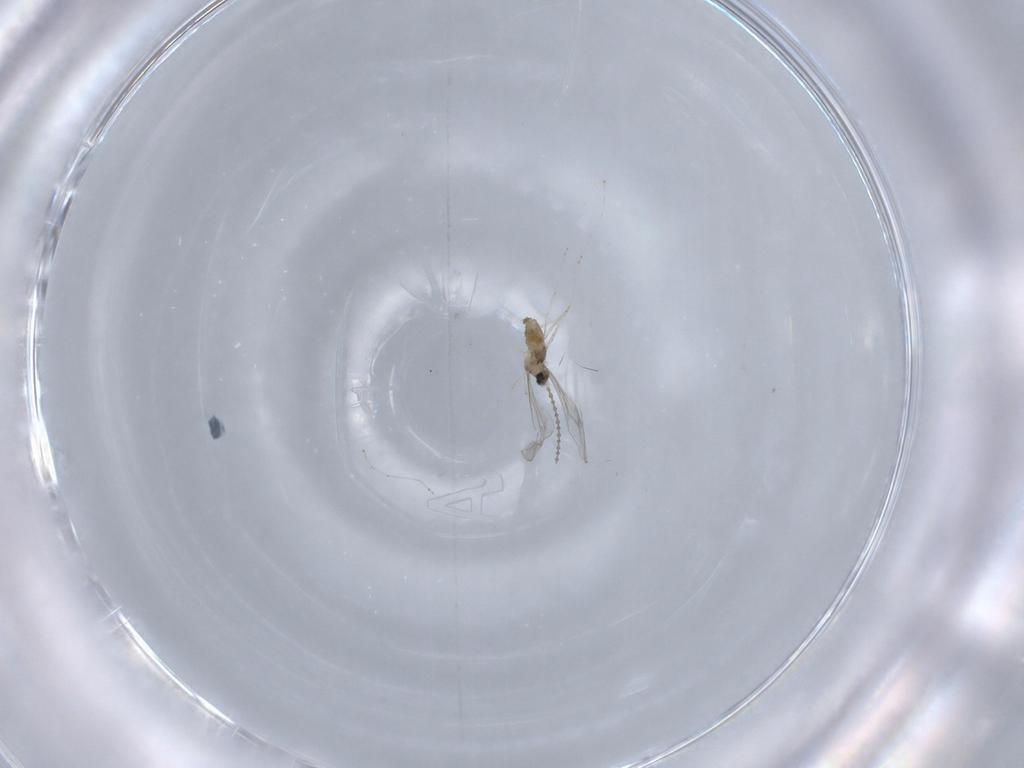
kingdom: Animalia
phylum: Arthropoda
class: Insecta
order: Diptera
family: Cecidomyiidae
